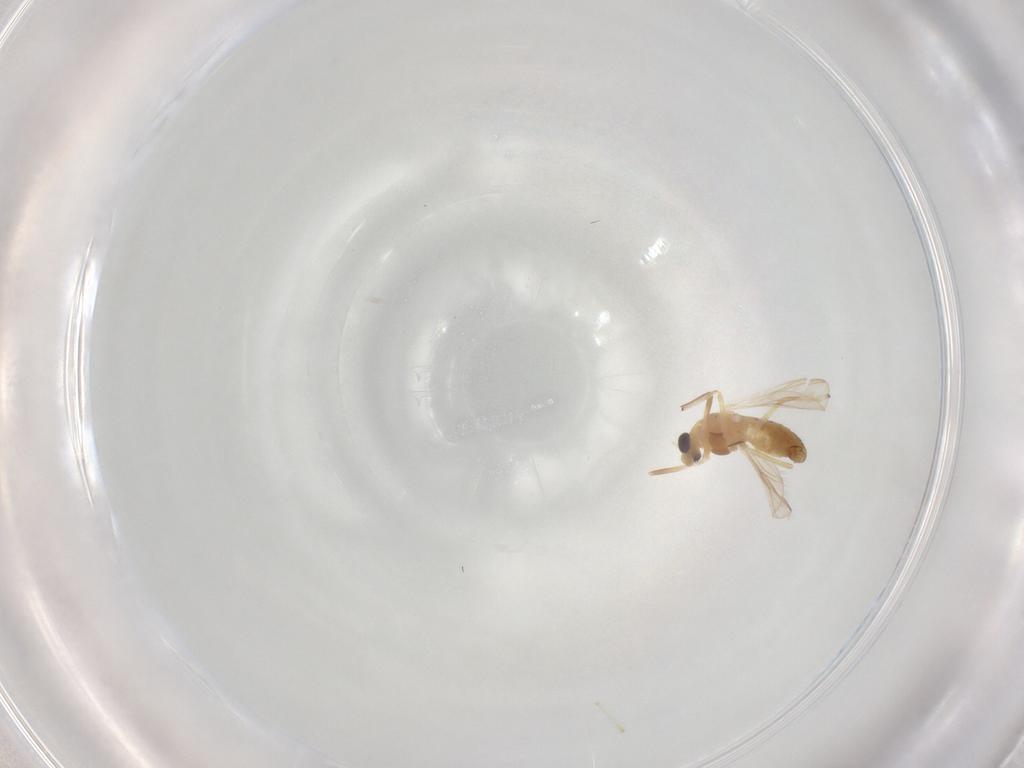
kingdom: Animalia
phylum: Arthropoda
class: Insecta
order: Diptera
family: Chironomidae
